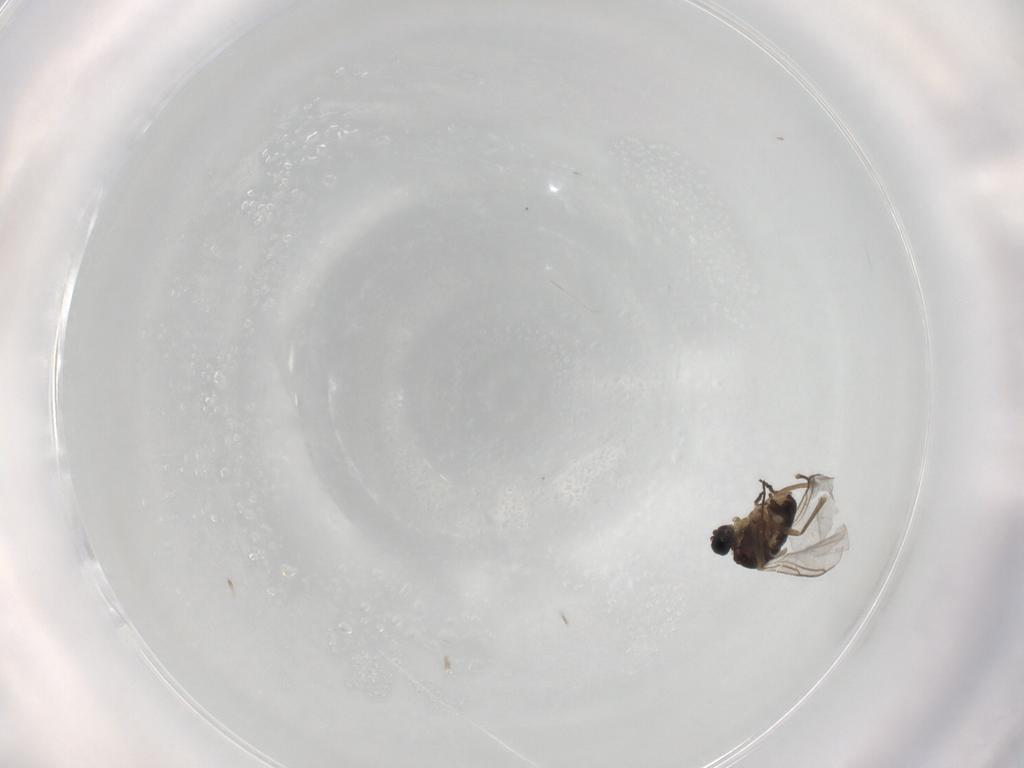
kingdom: Animalia
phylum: Arthropoda
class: Insecta
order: Diptera
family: Sciaridae
